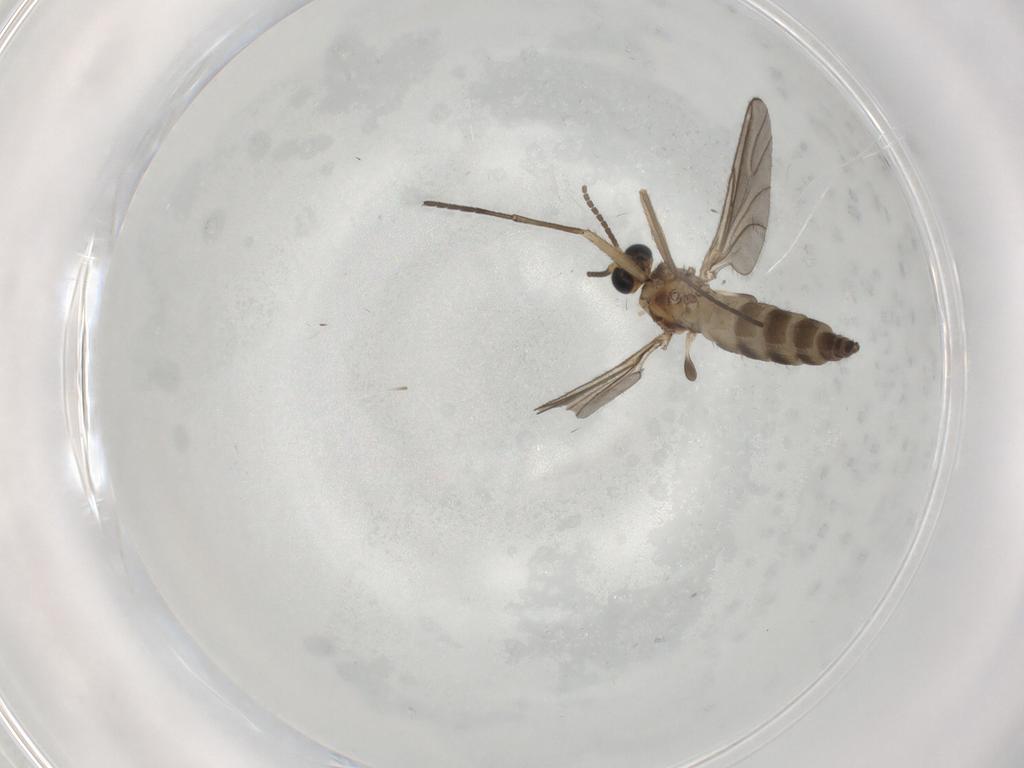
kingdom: Animalia
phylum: Arthropoda
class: Insecta
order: Diptera
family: Sciaridae
